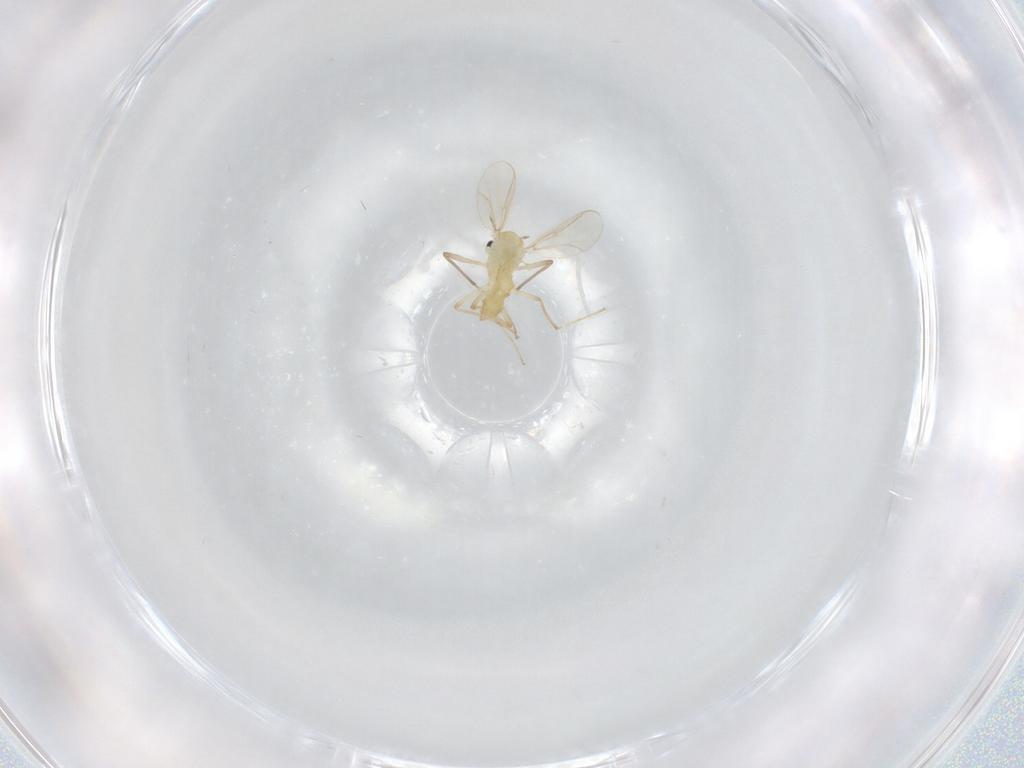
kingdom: Animalia
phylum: Arthropoda
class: Insecta
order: Diptera
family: Chironomidae
